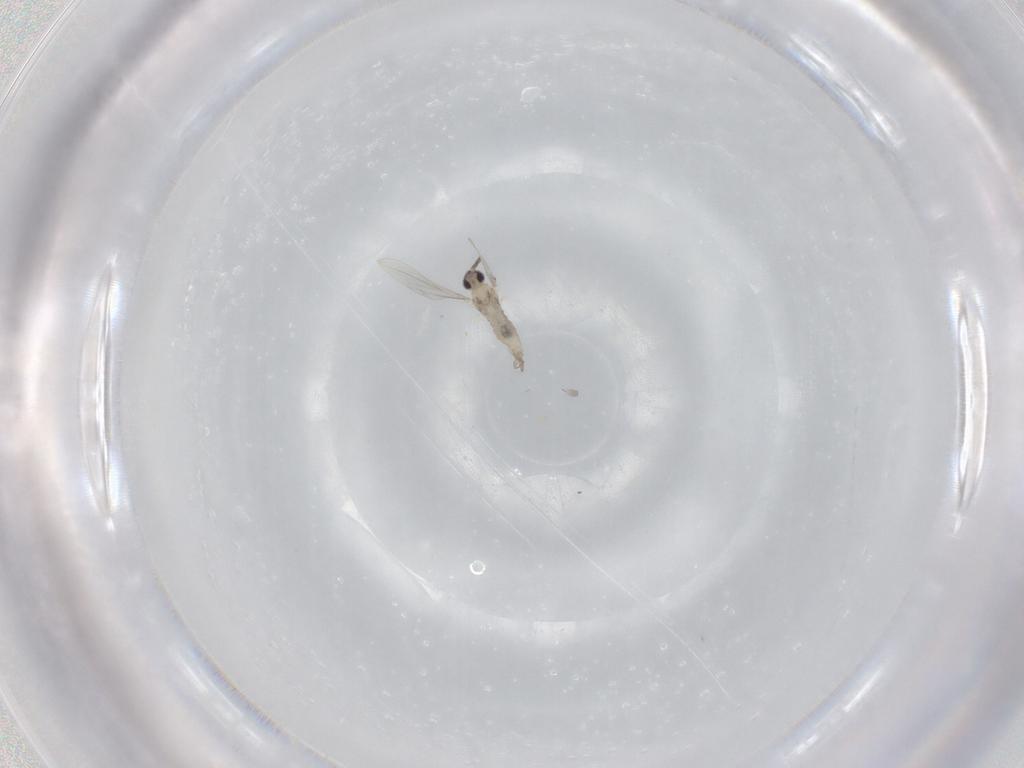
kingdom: Animalia
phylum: Arthropoda
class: Insecta
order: Diptera
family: Cecidomyiidae
